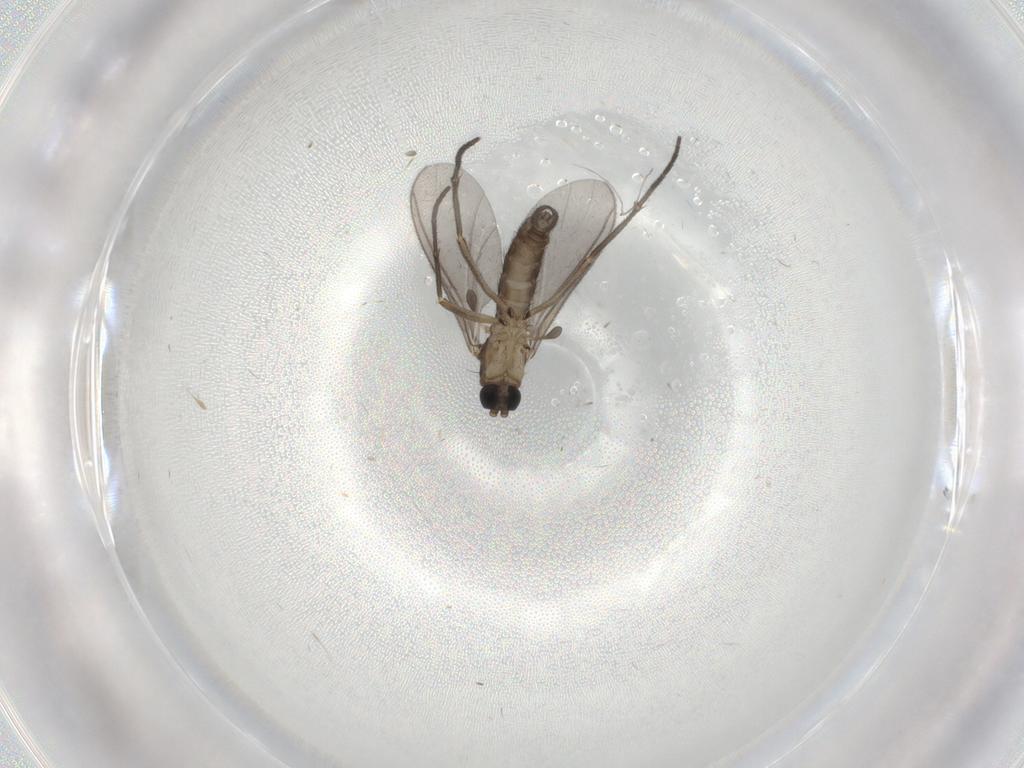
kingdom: Animalia
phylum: Arthropoda
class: Insecta
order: Diptera
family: Sciaridae
